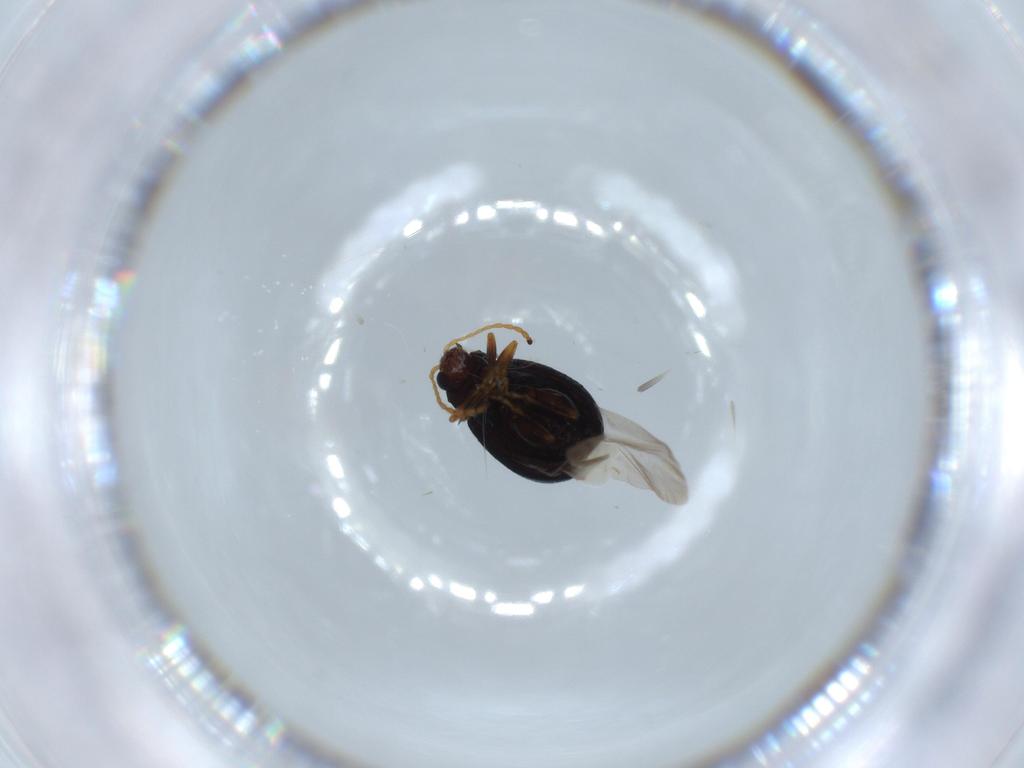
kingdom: Animalia
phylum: Arthropoda
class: Insecta
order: Coleoptera
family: Chrysomelidae
